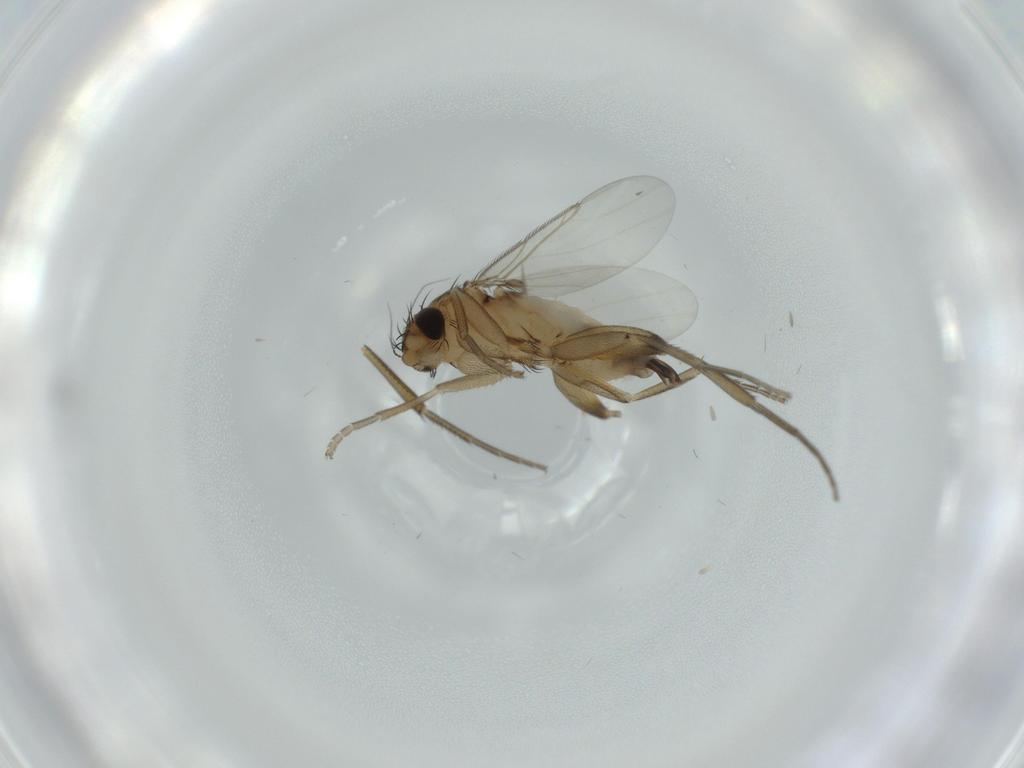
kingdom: Animalia
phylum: Arthropoda
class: Insecta
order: Diptera
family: Phoridae
